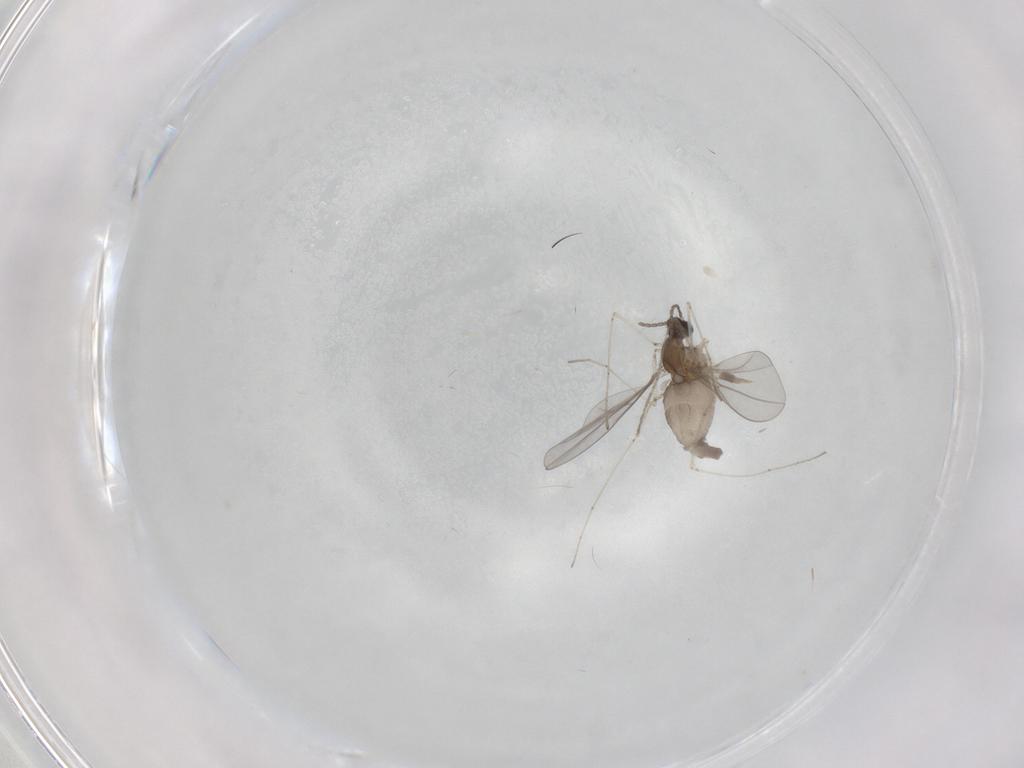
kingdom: Animalia
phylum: Arthropoda
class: Insecta
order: Diptera
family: Cecidomyiidae
